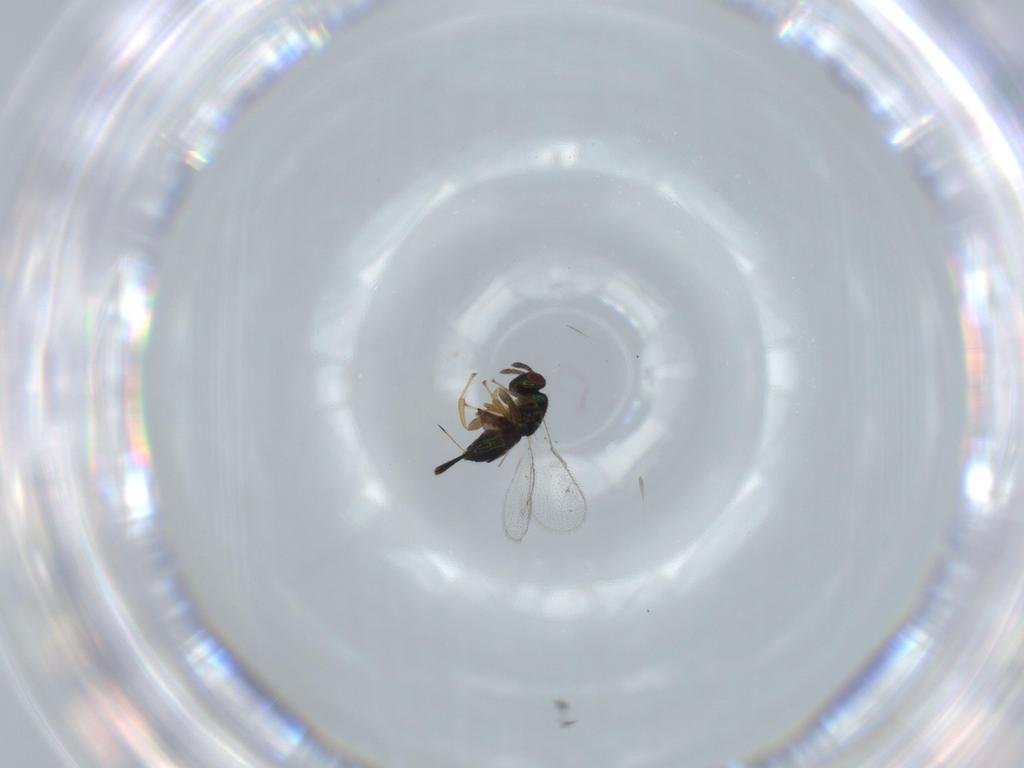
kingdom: Animalia
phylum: Arthropoda
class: Insecta
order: Hymenoptera
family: Torymidae
